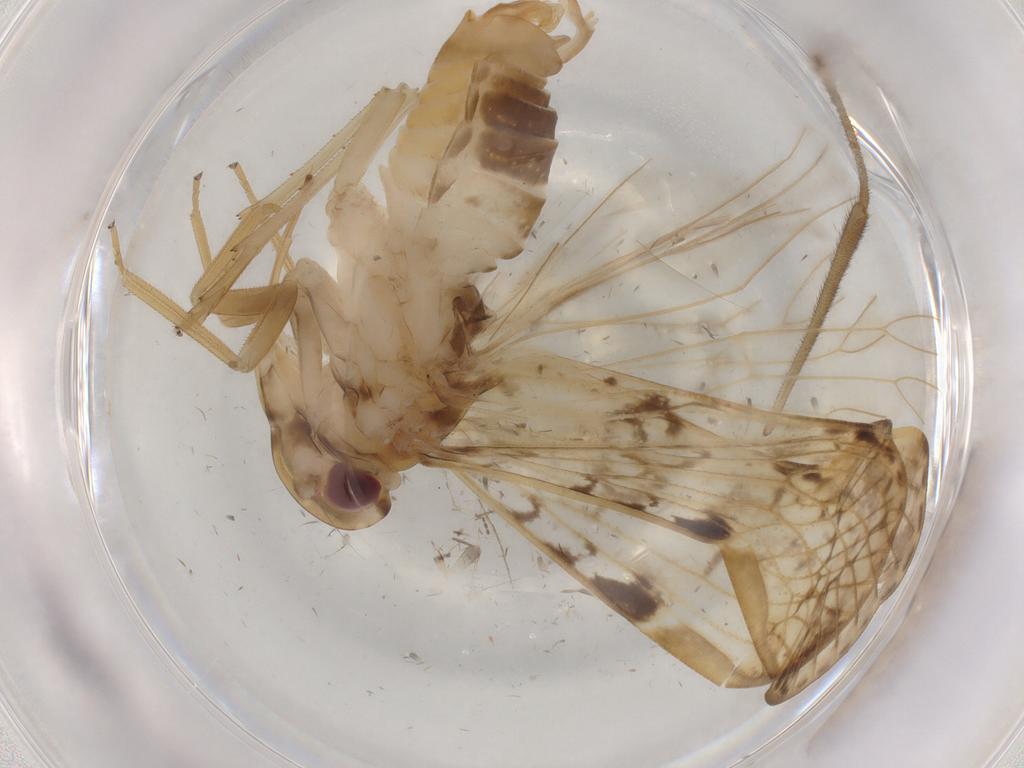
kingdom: Animalia
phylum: Arthropoda
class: Insecta
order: Hemiptera
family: Cixiidae
